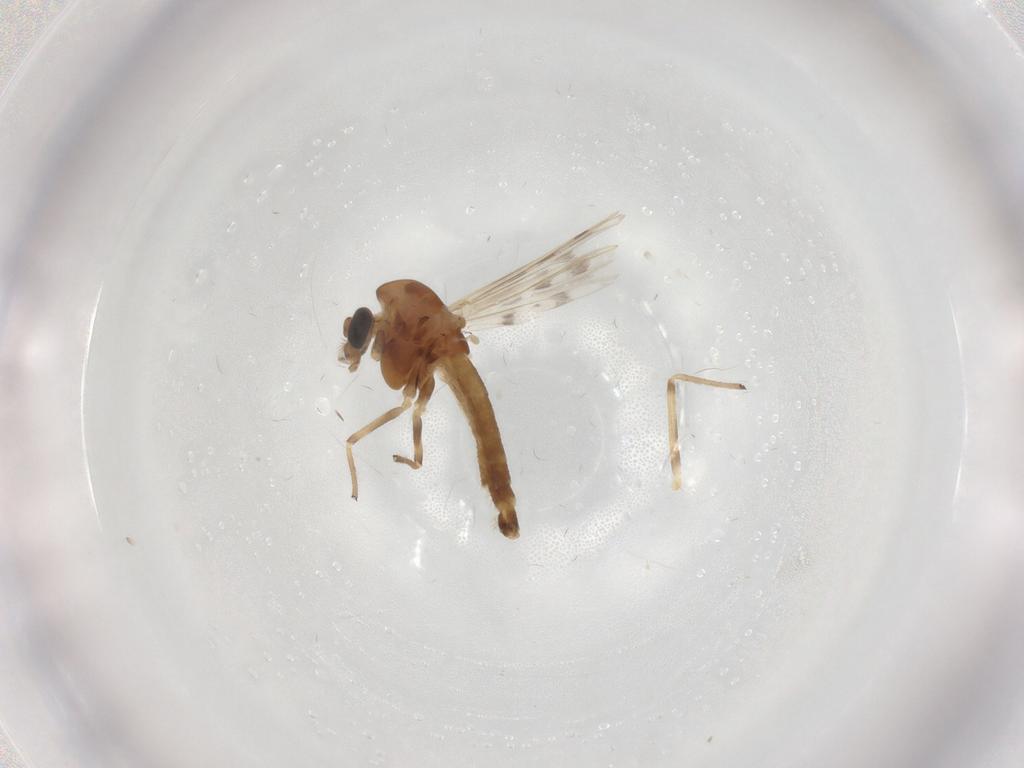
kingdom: Animalia
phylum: Arthropoda
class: Insecta
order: Diptera
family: Chironomidae
